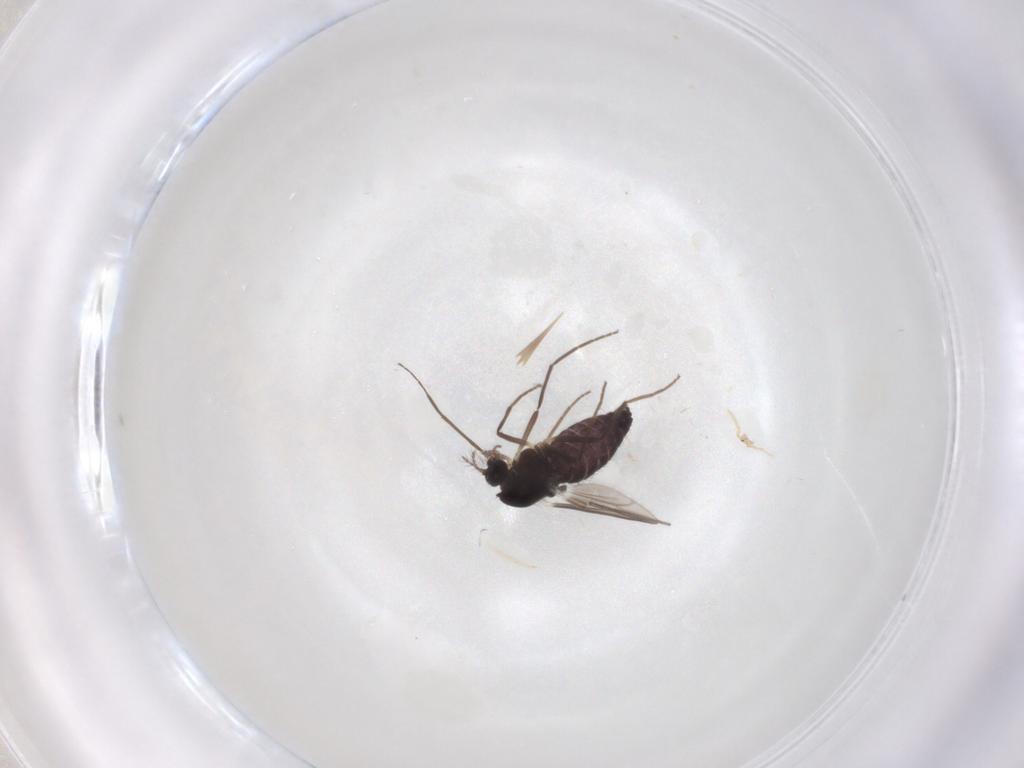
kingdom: Animalia
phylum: Arthropoda
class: Insecta
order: Diptera
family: Chironomidae
